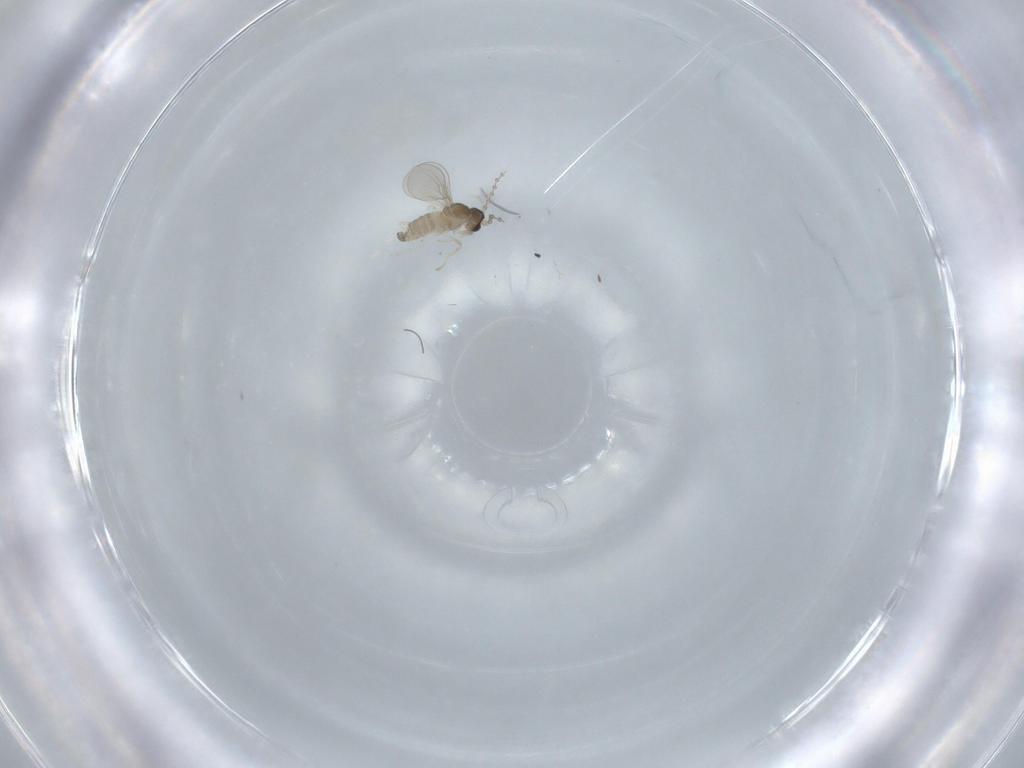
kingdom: Animalia
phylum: Arthropoda
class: Insecta
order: Diptera
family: Cecidomyiidae
